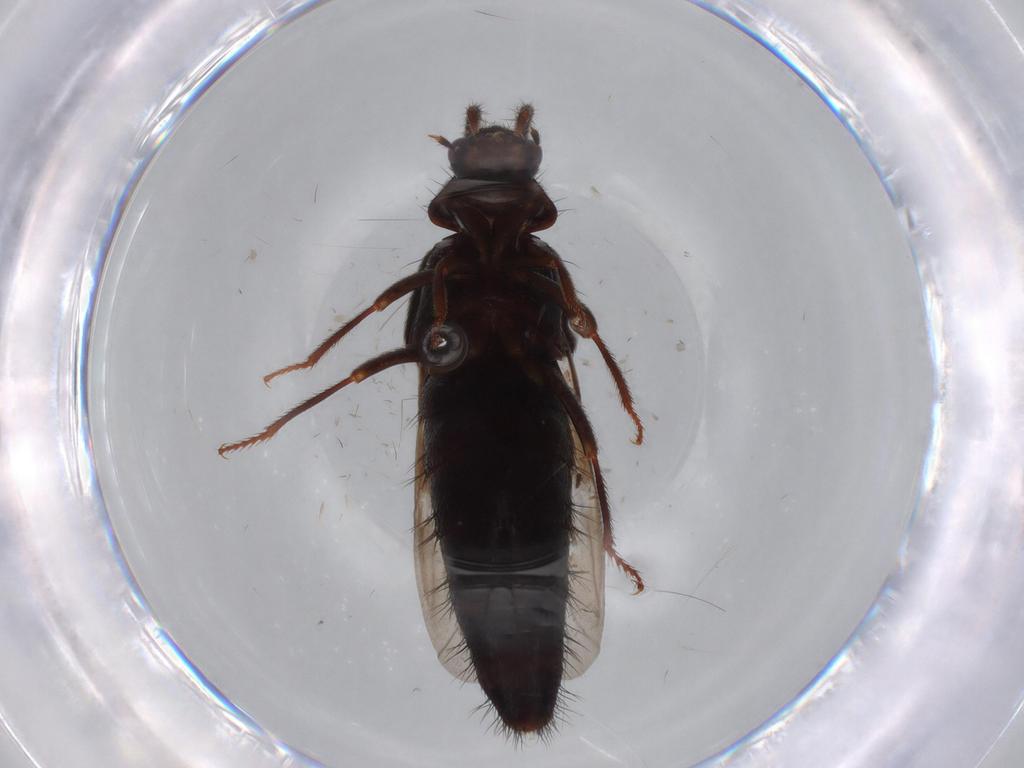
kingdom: Animalia
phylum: Arthropoda
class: Insecta
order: Coleoptera
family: Staphylinidae
